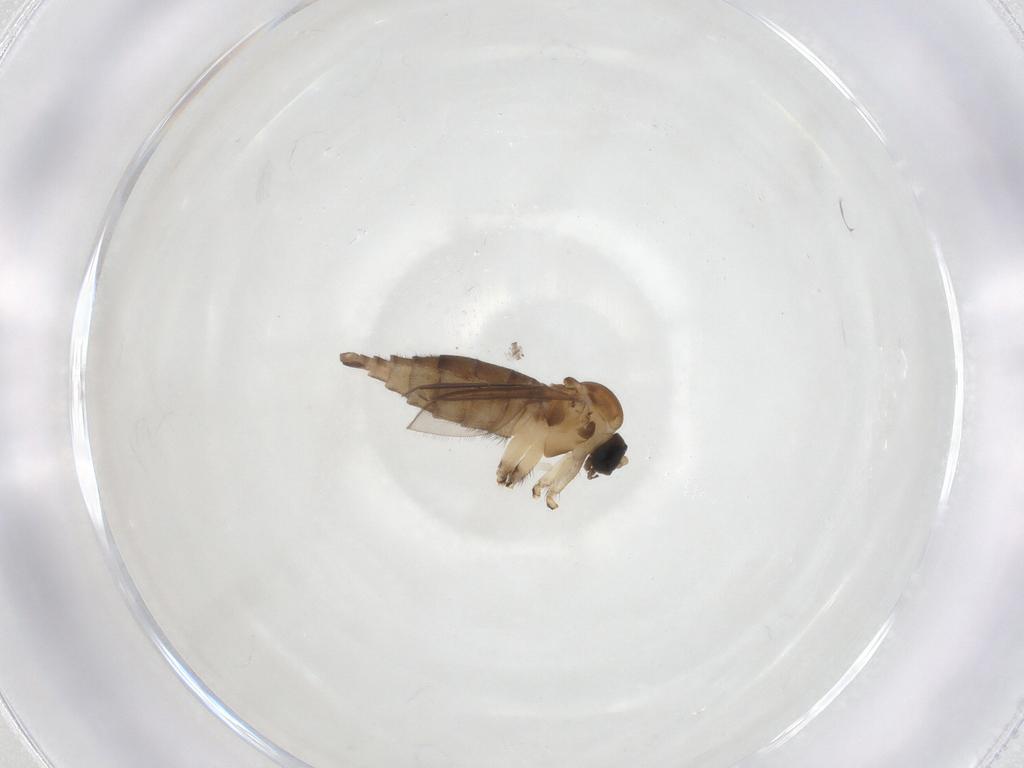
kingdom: Animalia
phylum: Arthropoda
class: Insecta
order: Diptera
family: Sciaridae
